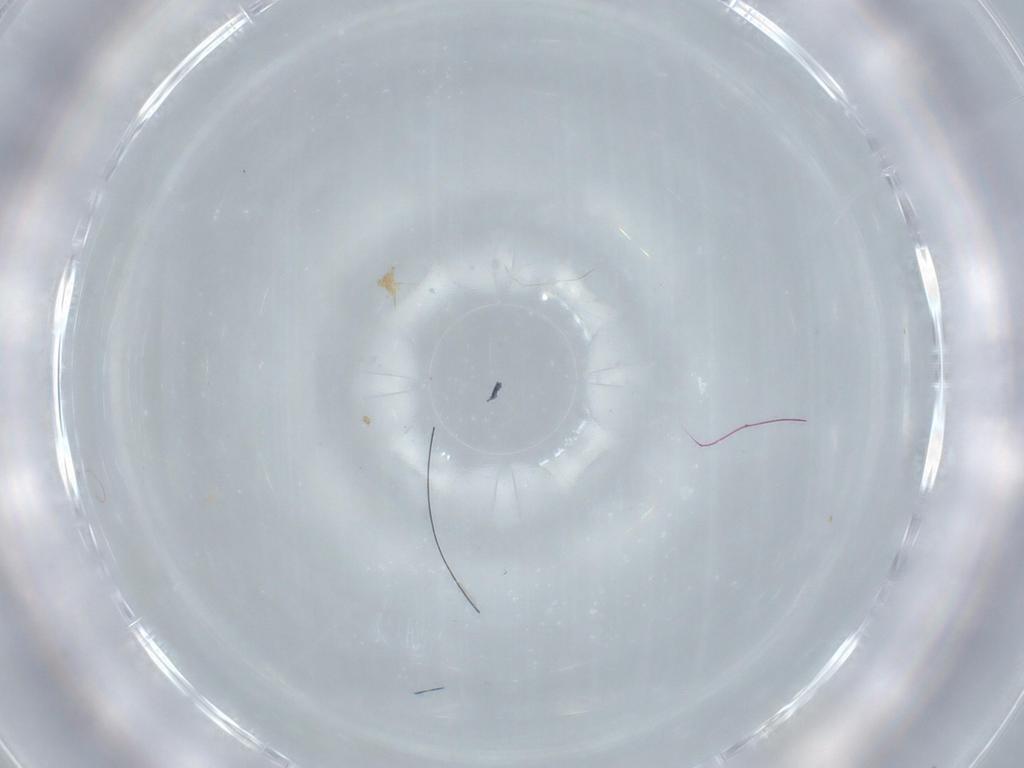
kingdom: Animalia
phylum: Arthropoda
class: Insecta
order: Diptera
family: Cecidomyiidae
